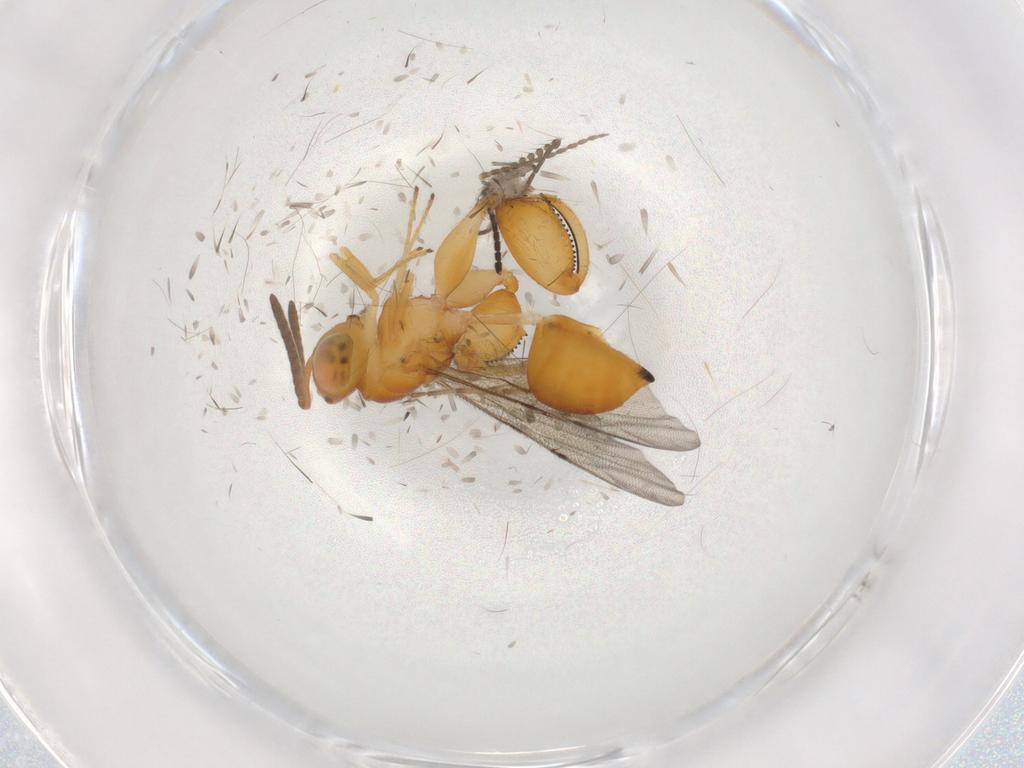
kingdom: Animalia
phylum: Arthropoda
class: Insecta
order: Hymenoptera
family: Chalcididae
